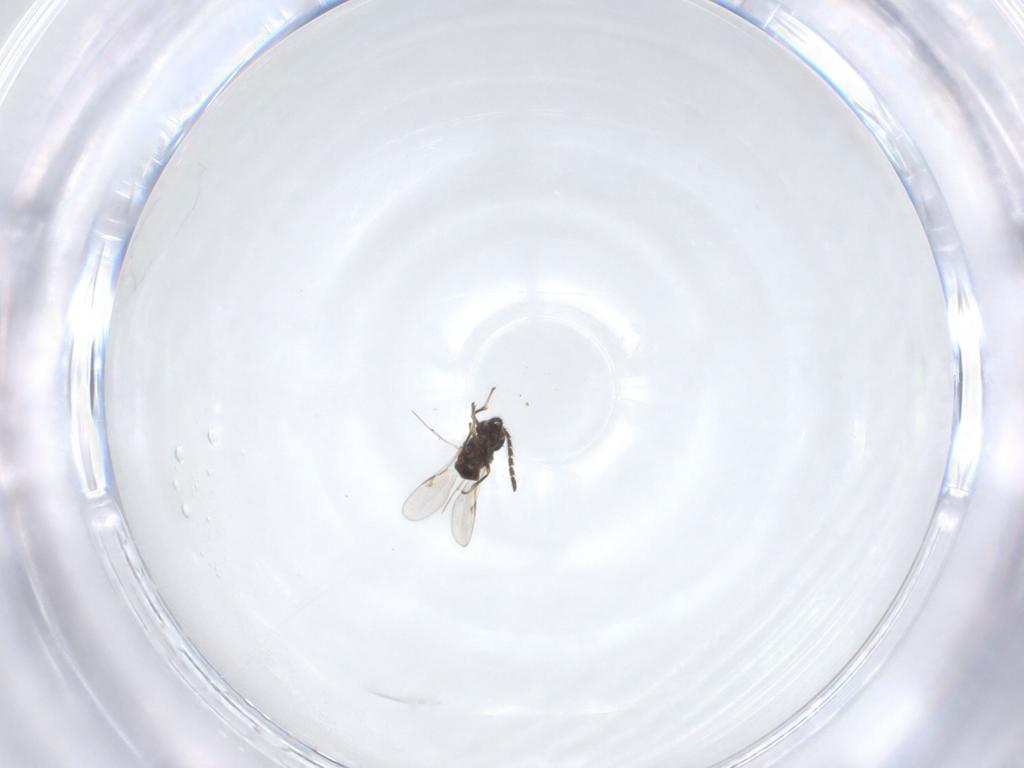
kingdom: Animalia
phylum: Arthropoda
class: Insecta
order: Hymenoptera
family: Encyrtidae
